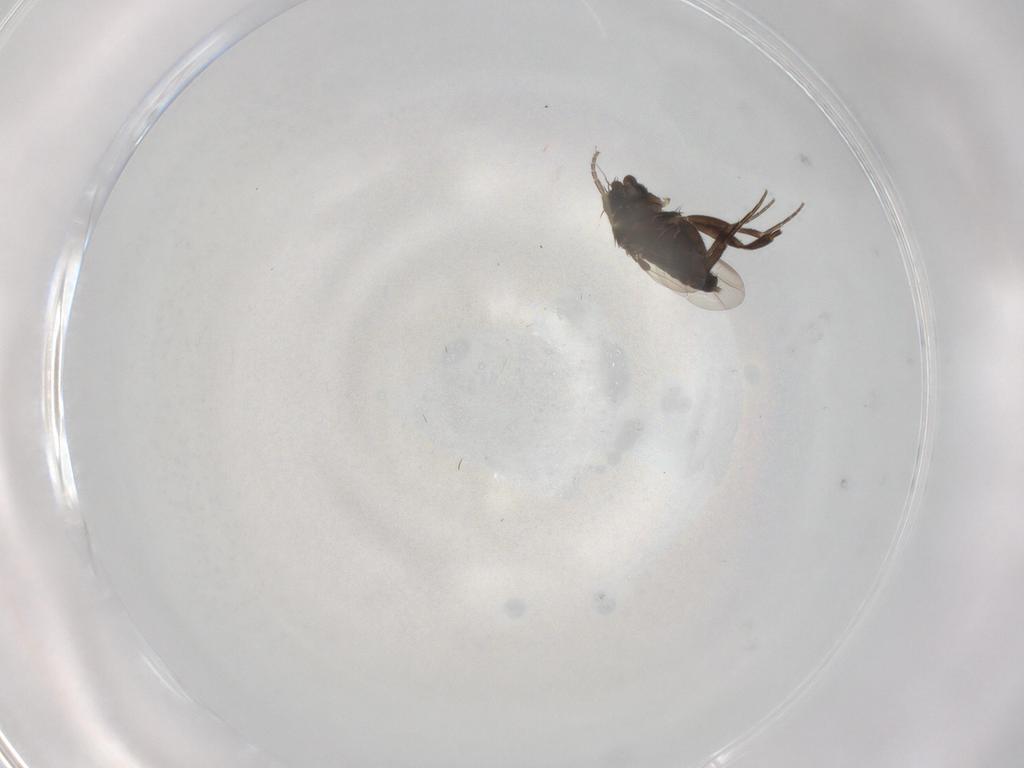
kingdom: Animalia
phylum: Arthropoda
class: Insecta
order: Diptera
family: Phoridae
